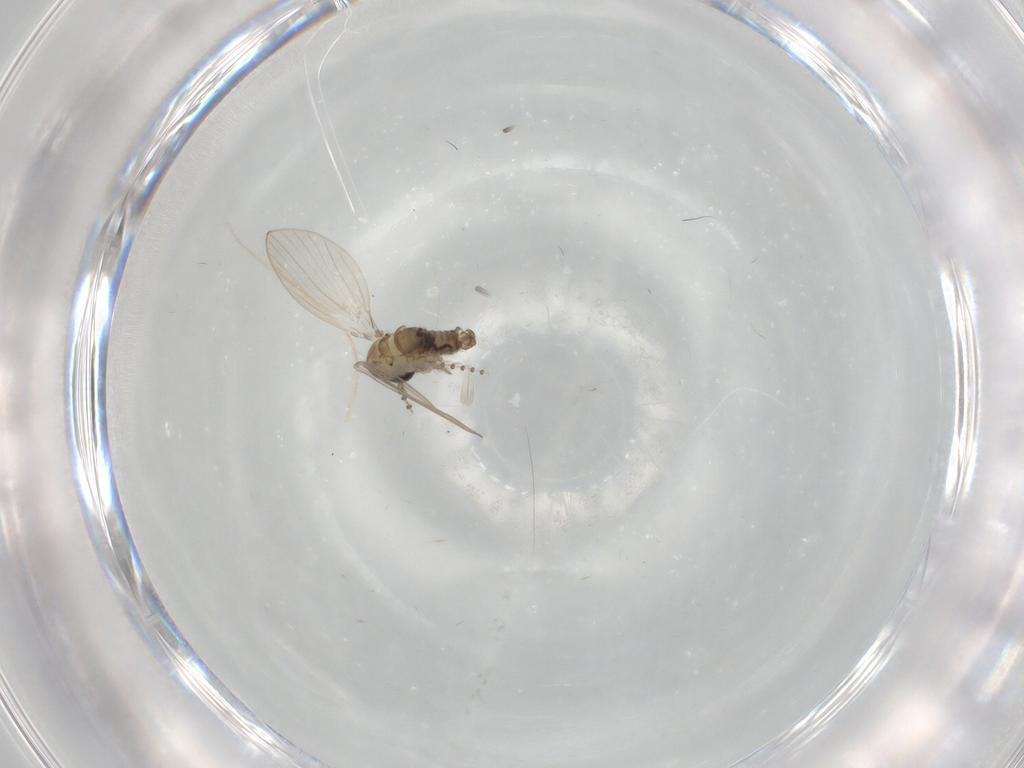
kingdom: Animalia
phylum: Arthropoda
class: Insecta
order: Diptera
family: Psychodidae
